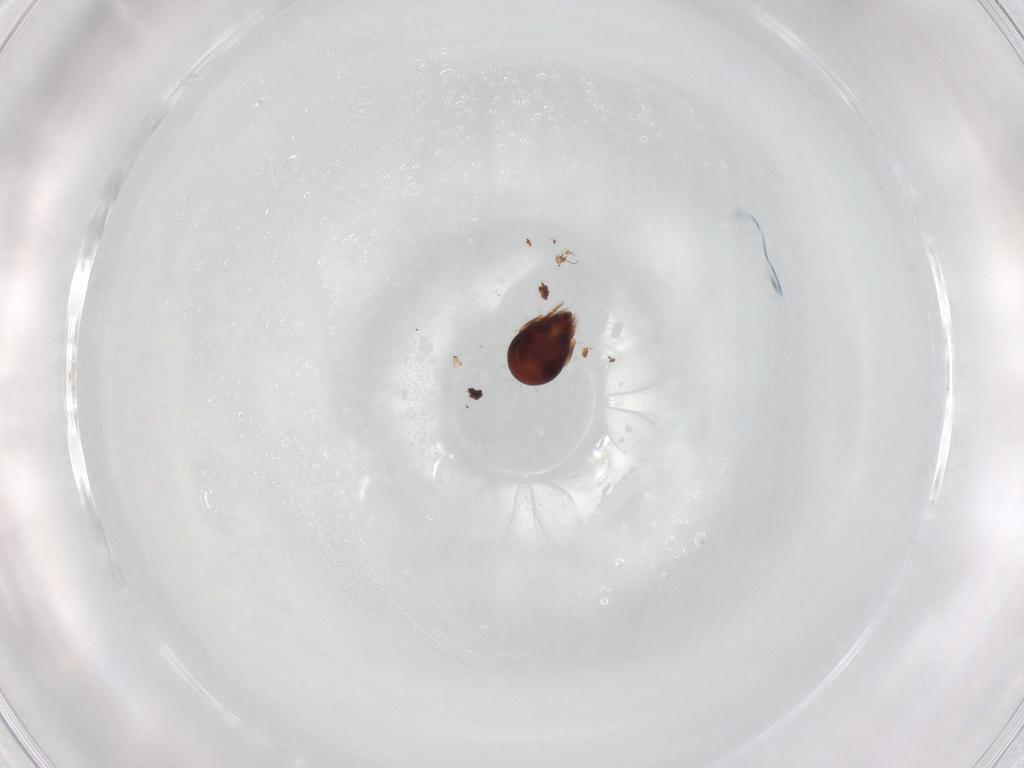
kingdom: Animalia
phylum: Arthropoda
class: Arachnida
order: Sarcoptiformes
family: Humerobatidae
